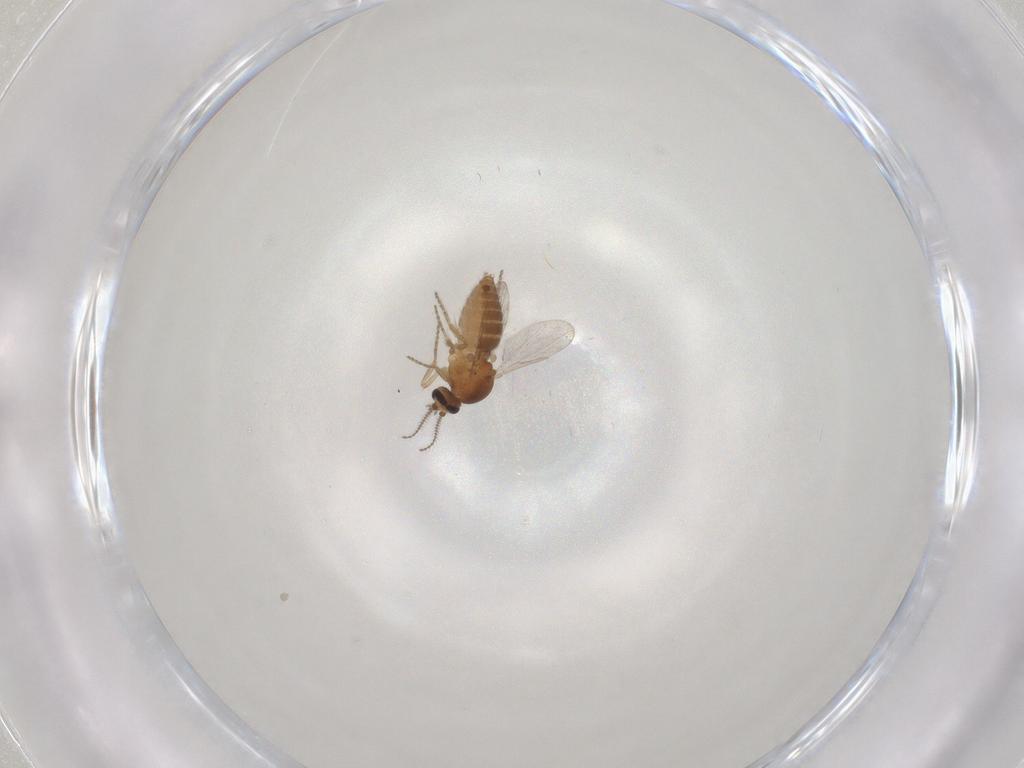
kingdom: Animalia
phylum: Arthropoda
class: Insecta
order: Diptera
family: Ceratopogonidae
